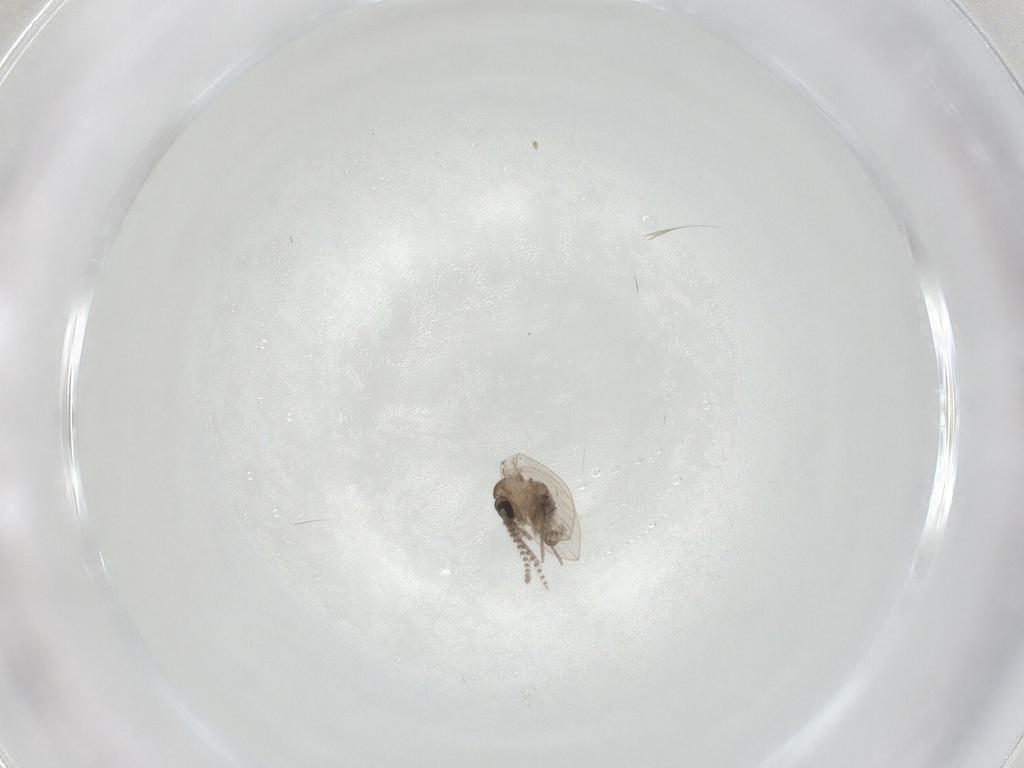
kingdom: Animalia
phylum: Arthropoda
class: Insecta
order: Diptera
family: Psychodidae
